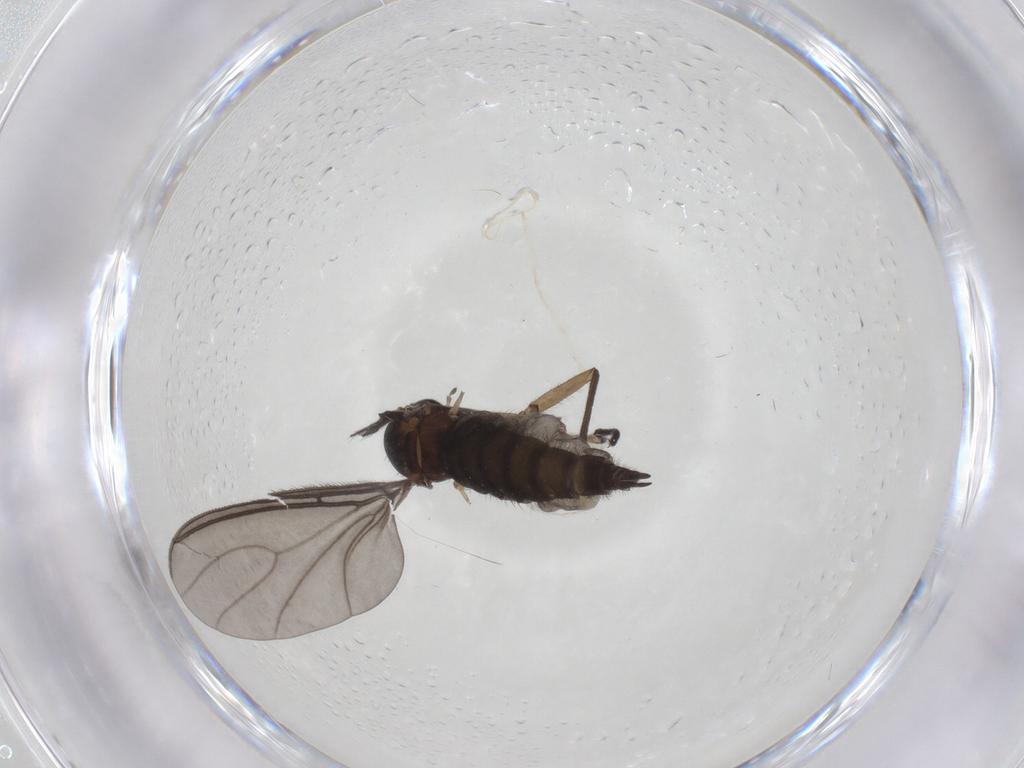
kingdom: Animalia
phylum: Arthropoda
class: Insecta
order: Diptera
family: Sciaridae
